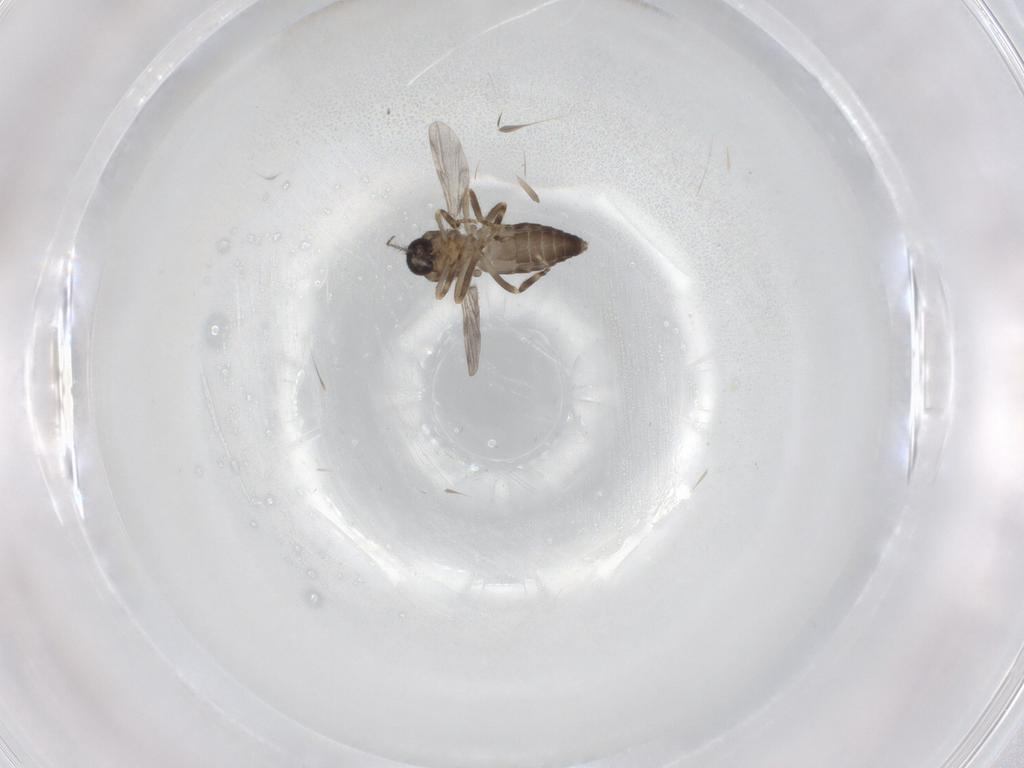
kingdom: Animalia
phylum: Arthropoda
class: Insecta
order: Diptera
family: Ceratopogonidae
